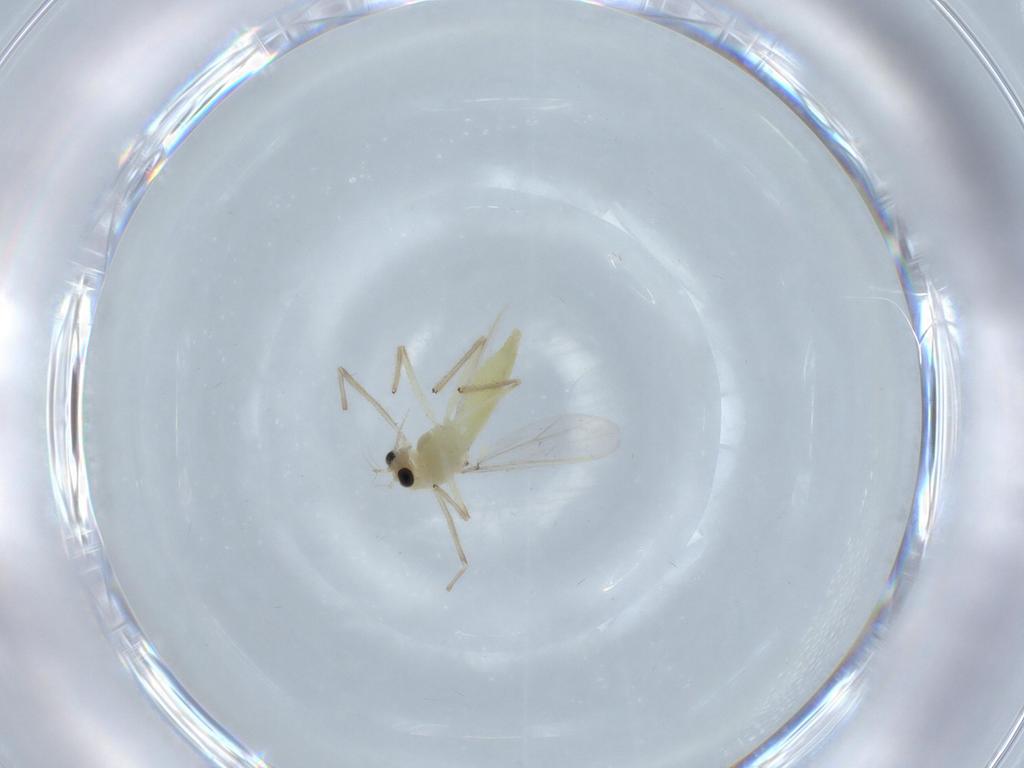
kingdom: Animalia
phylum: Arthropoda
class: Insecta
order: Diptera
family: Chironomidae
